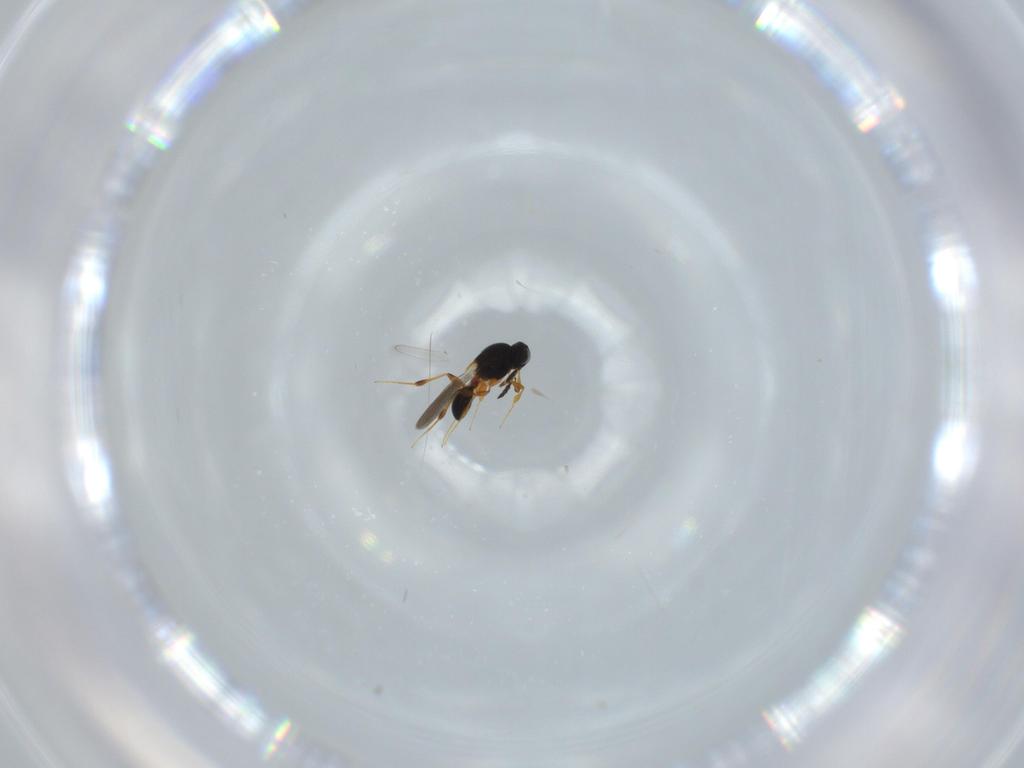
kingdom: Animalia
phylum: Arthropoda
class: Insecta
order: Hymenoptera
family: Platygastridae
